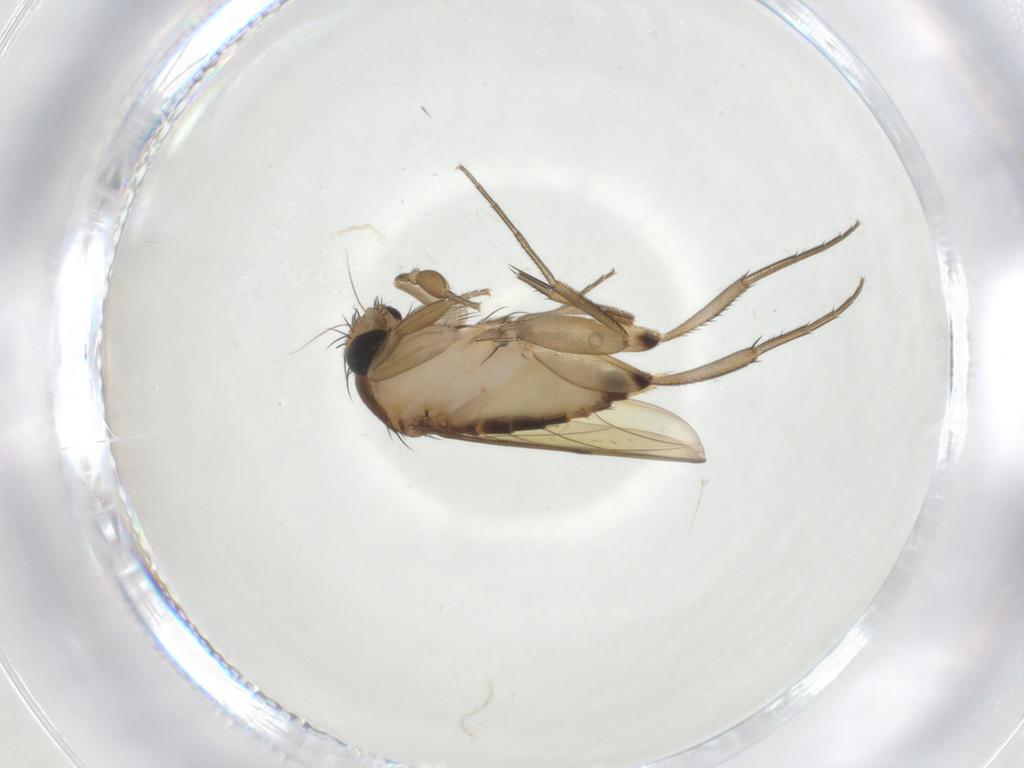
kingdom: Animalia
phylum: Arthropoda
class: Insecta
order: Diptera
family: Phoridae
